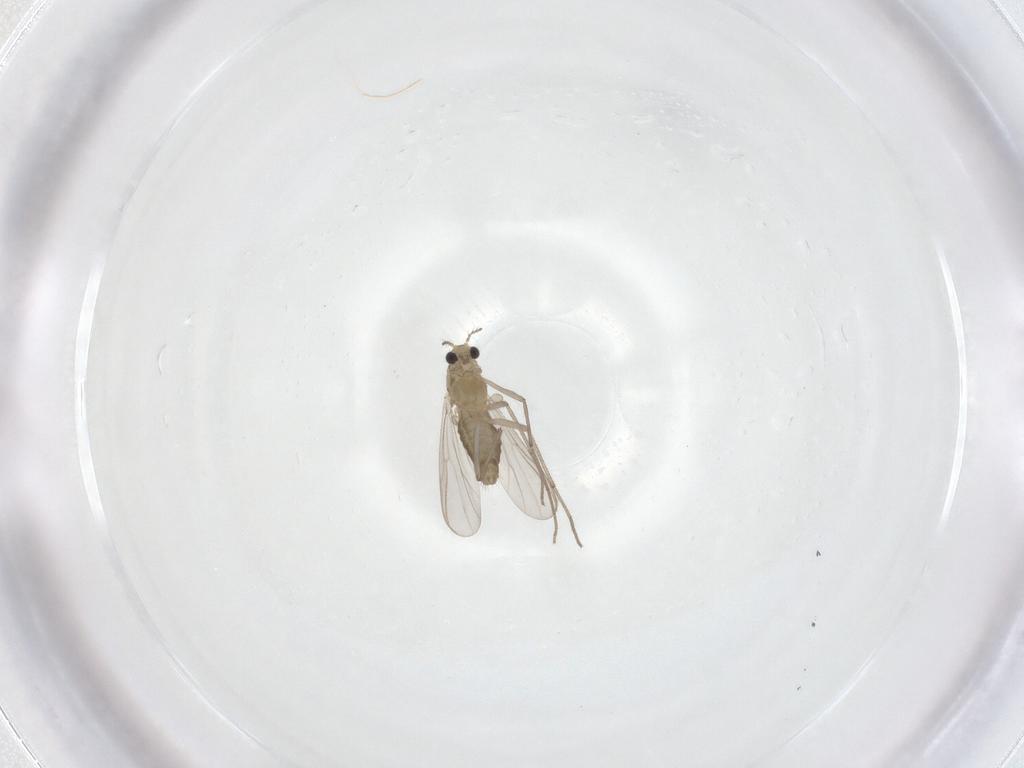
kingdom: Animalia
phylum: Arthropoda
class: Insecta
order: Diptera
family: Chironomidae
